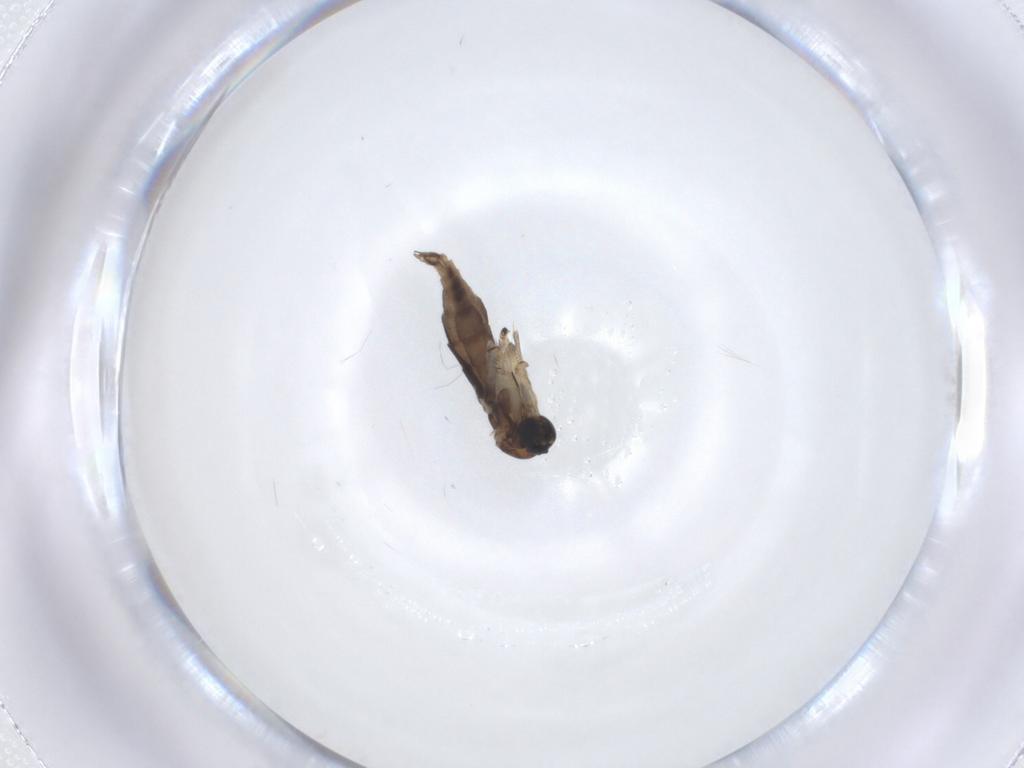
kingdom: Animalia
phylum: Arthropoda
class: Insecta
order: Diptera
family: Sciaridae
